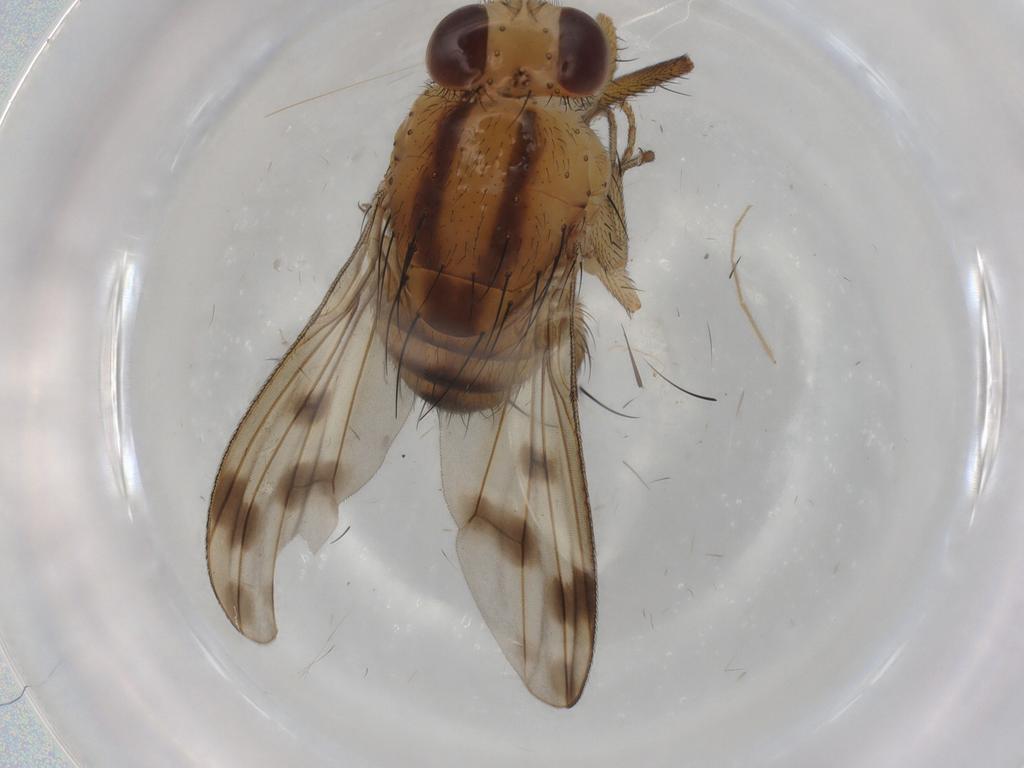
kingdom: Animalia
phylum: Arthropoda
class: Insecta
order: Diptera
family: Calliphoridae
